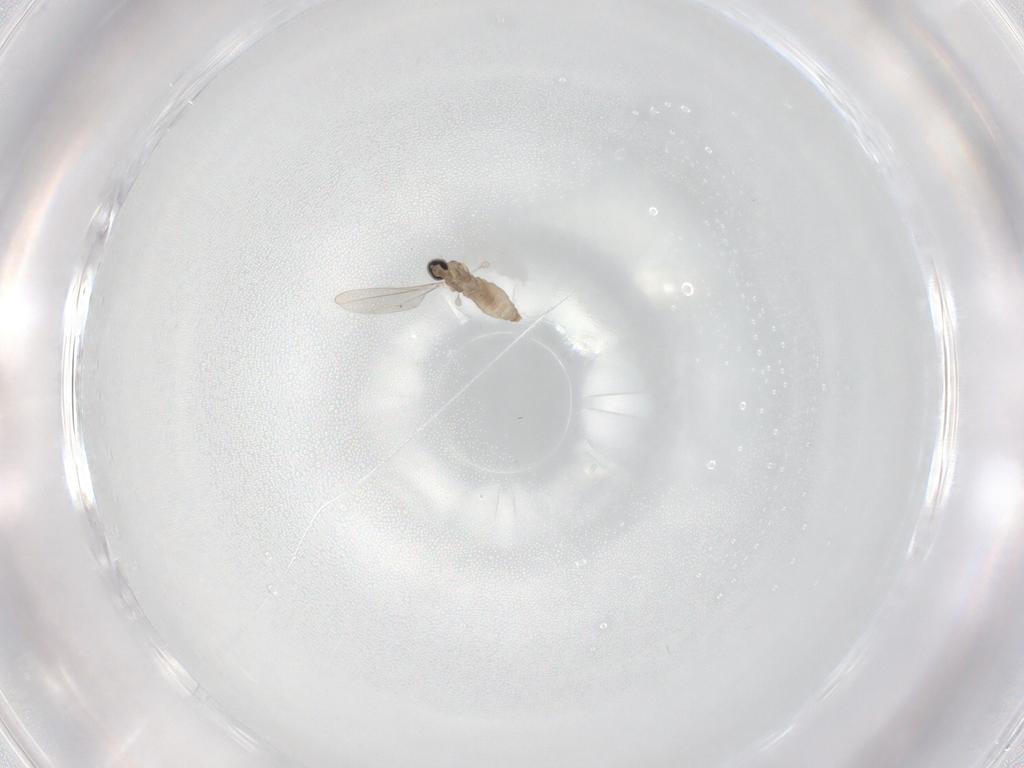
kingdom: Animalia
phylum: Arthropoda
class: Insecta
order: Diptera
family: Cecidomyiidae
